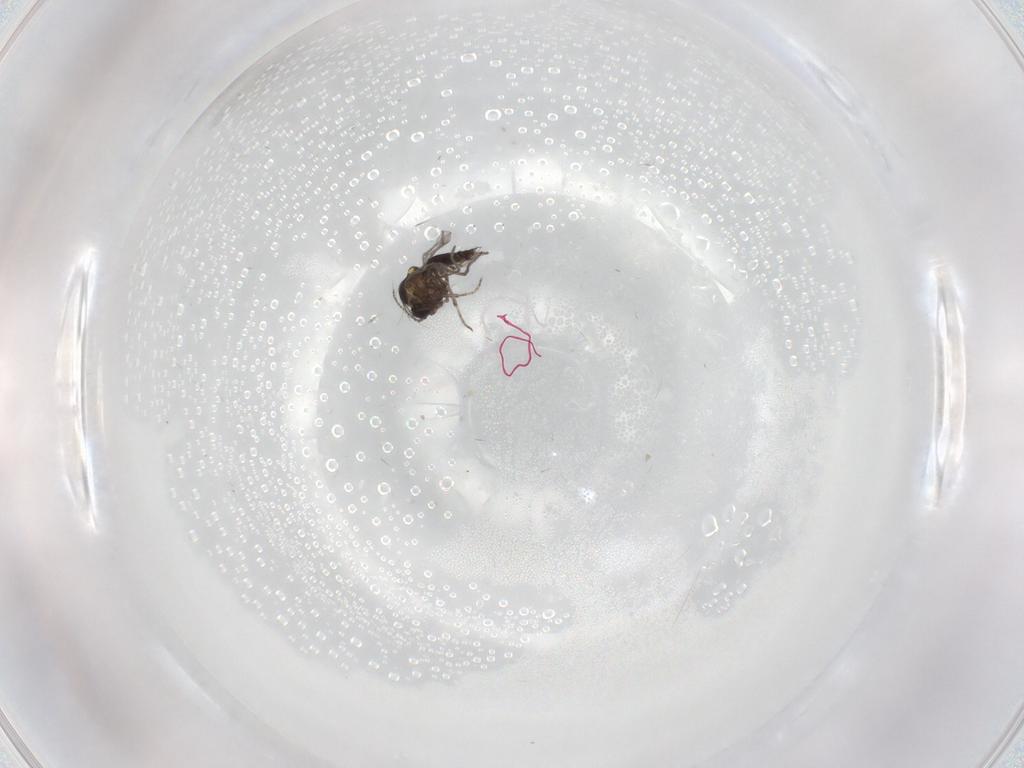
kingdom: Animalia
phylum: Arthropoda
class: Insecta
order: Diptera
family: Ceratopogonidae
